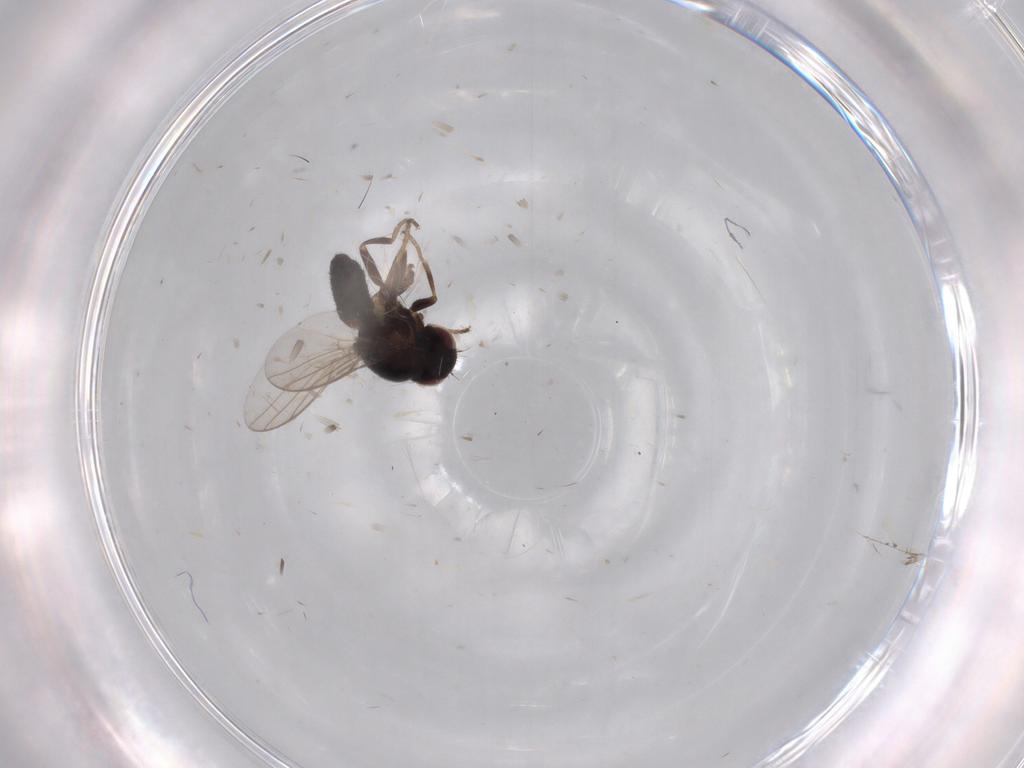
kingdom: Animalia
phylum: Arthropoda
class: Insecta
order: Diptera
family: Chloropidae
